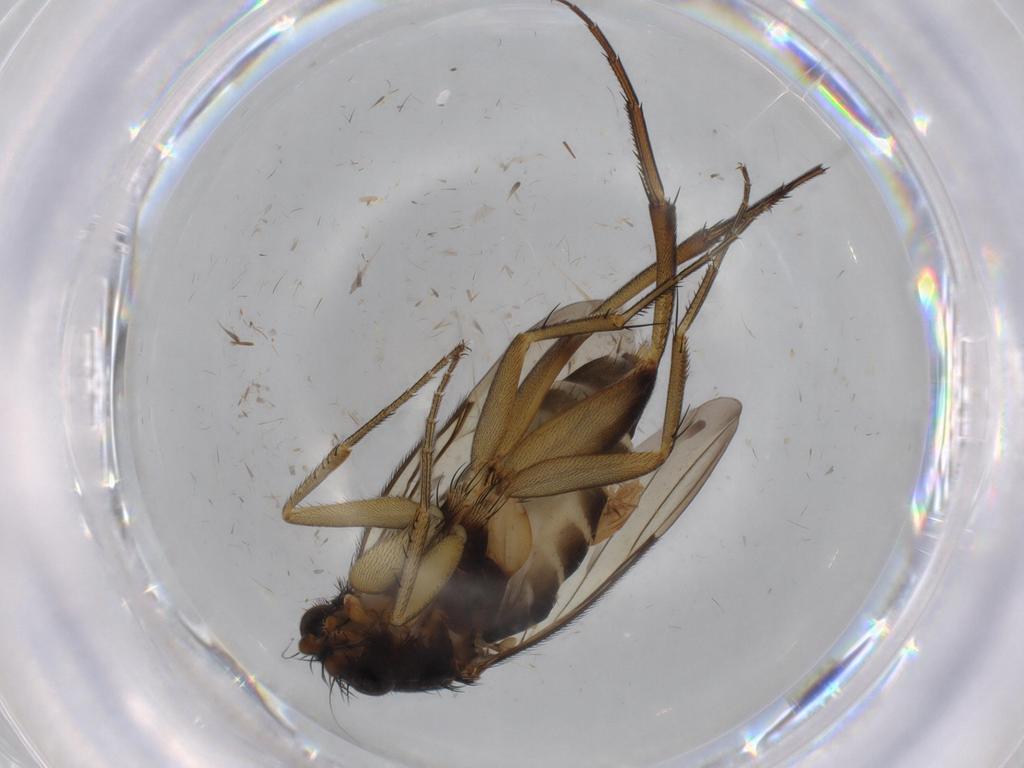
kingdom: Animalia
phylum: Arthropoda
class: Insecta
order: Diptera
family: Phoridae
